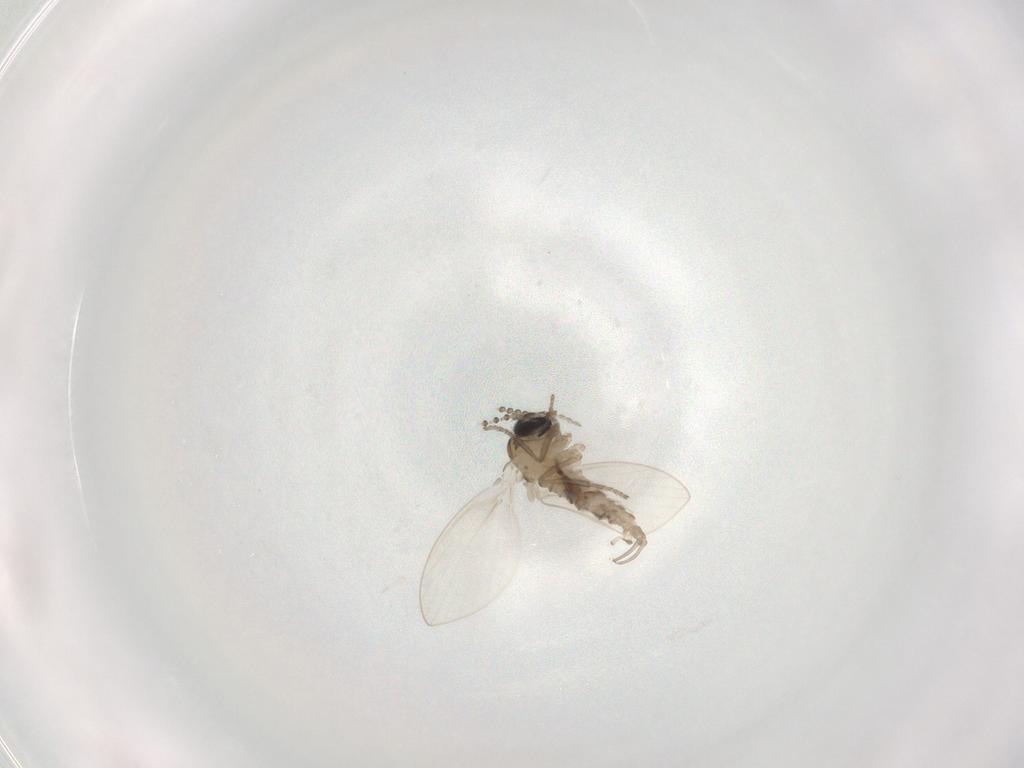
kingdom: Animalia
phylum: Arthropoda
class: Insecta
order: Diptera
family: Psychodidae
